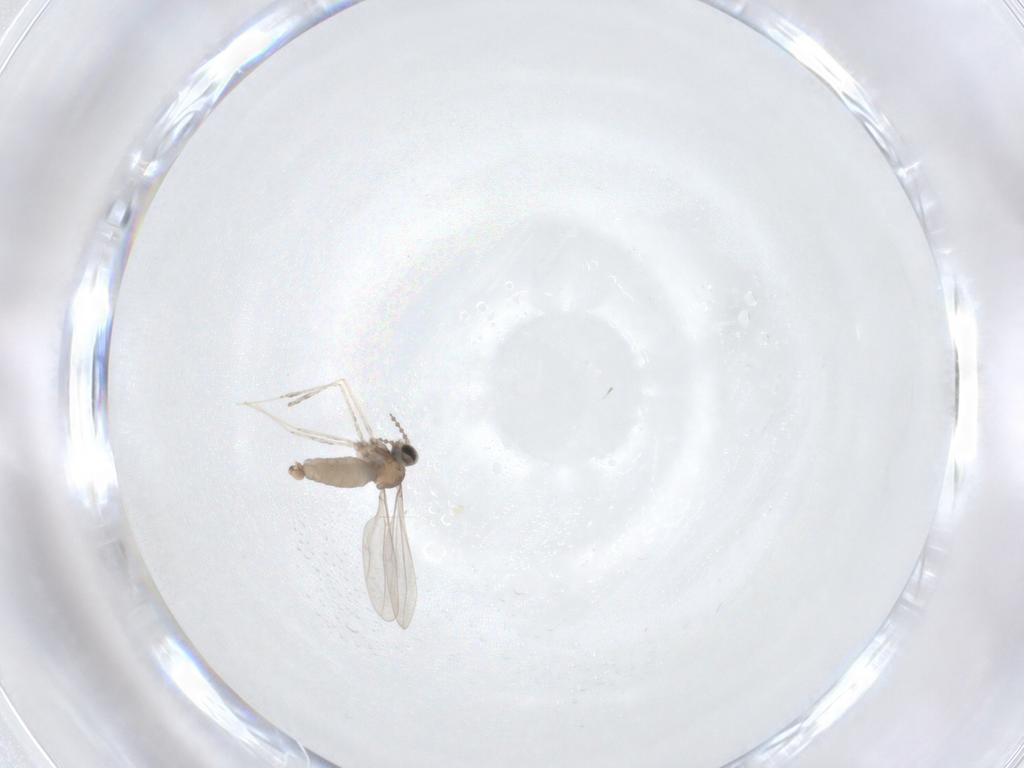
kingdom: Animalia
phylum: Arthropoda
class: Insecta
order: Diptera
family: Cecidomyiidae
